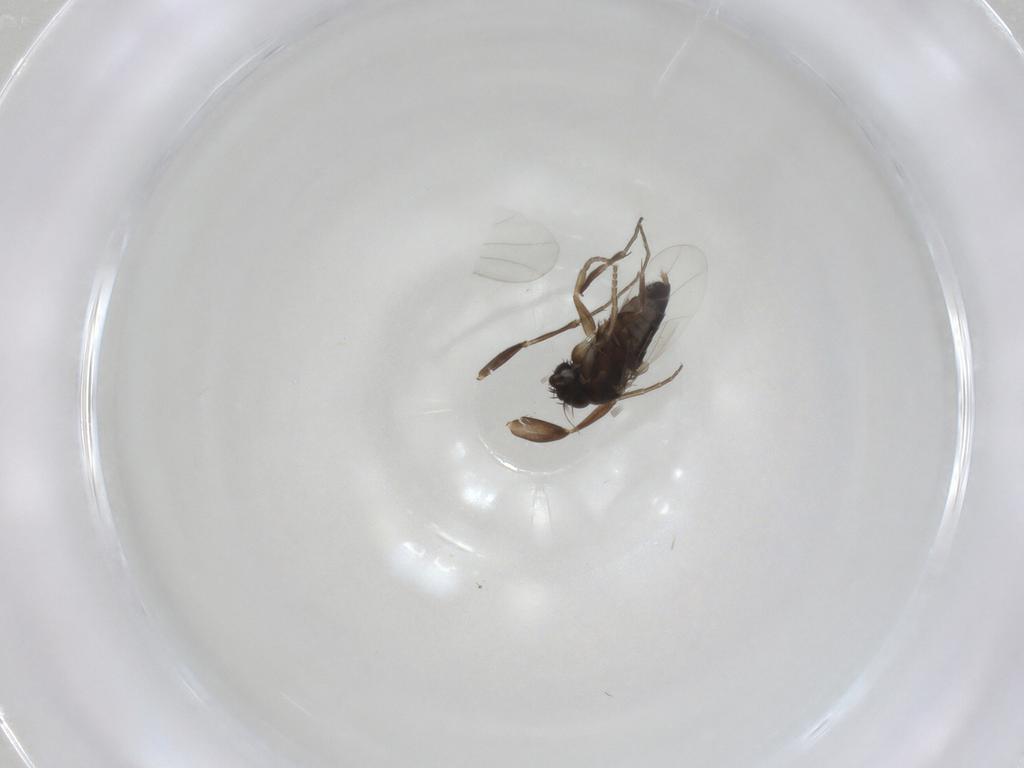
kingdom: Animalia
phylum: Arthropoda
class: Insecta
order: Diptera
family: Phoridae
